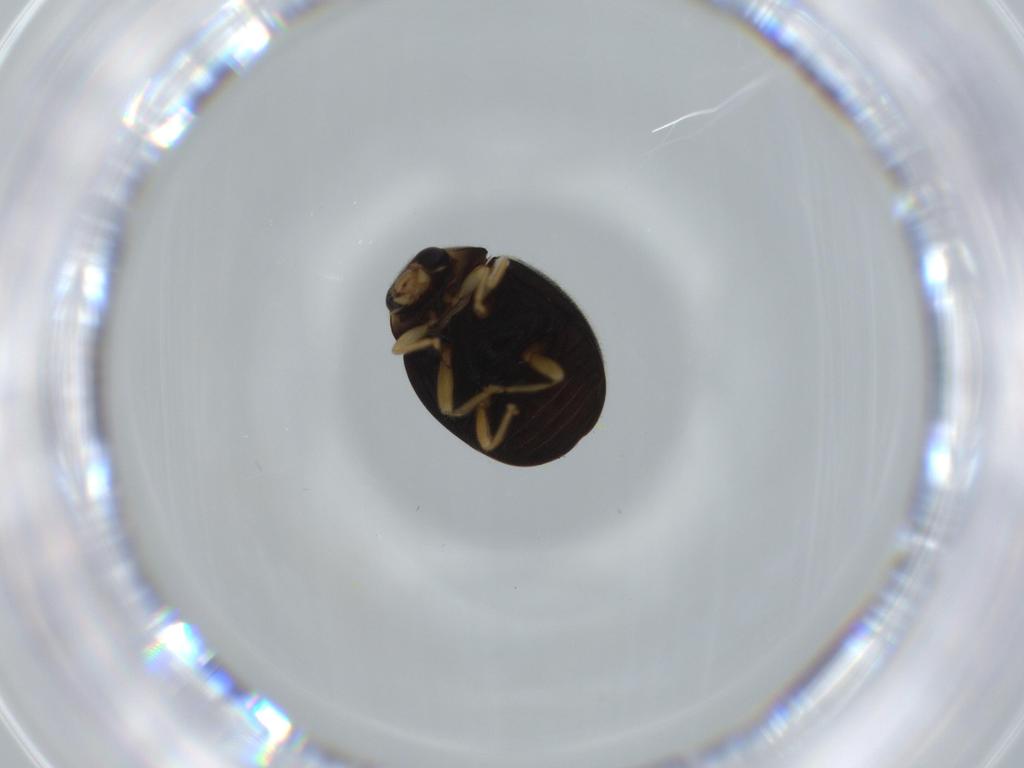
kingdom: Animalia
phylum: Arthropoda
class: Insecta
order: Coleoptera
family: Coccinellidae
